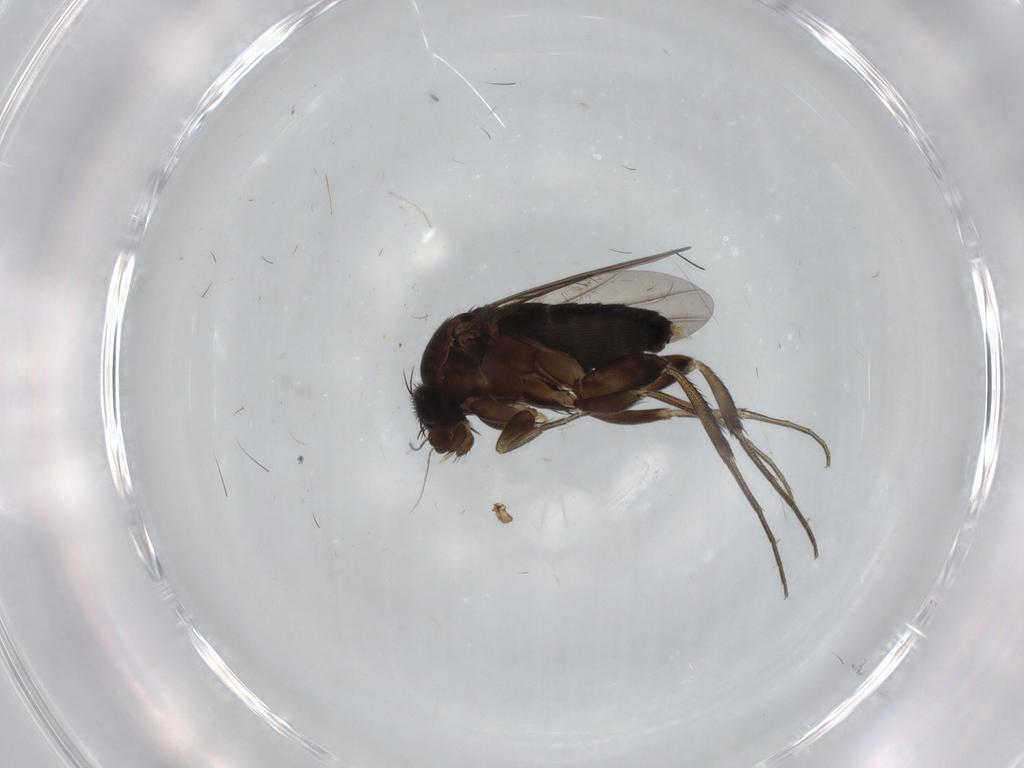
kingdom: Animalia
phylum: Arthropoda
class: Insecta
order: Diptera
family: Phoridae
